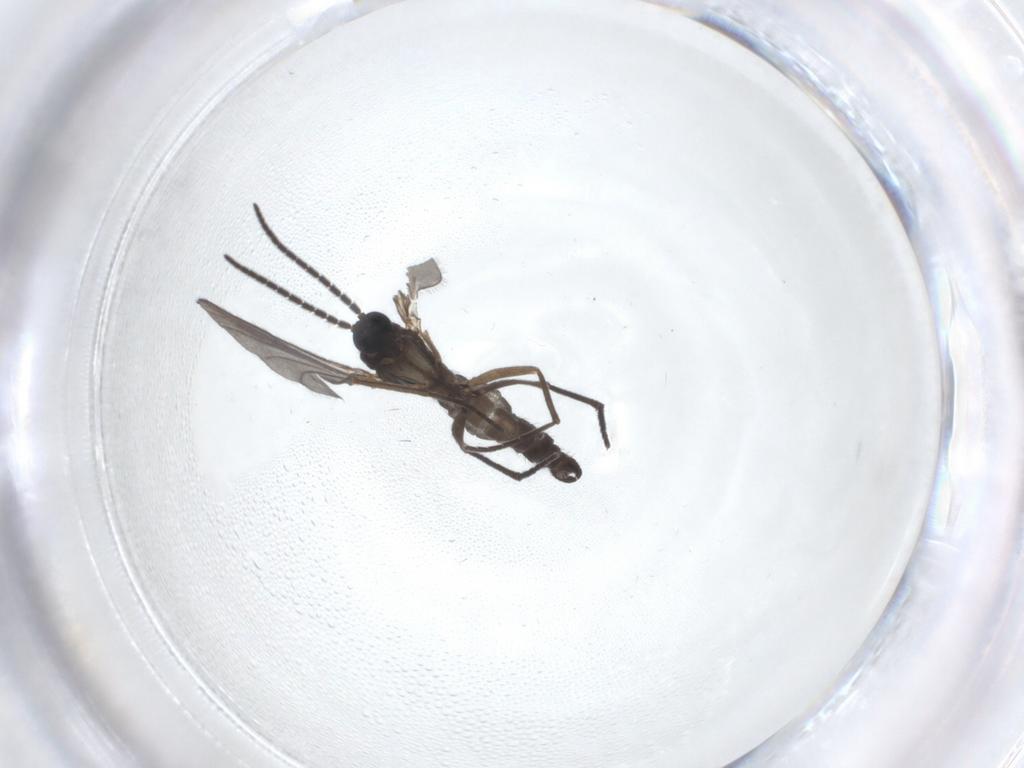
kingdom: Animalia
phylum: Arthropoda
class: Insecta
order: Diptera
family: Sciaridae
